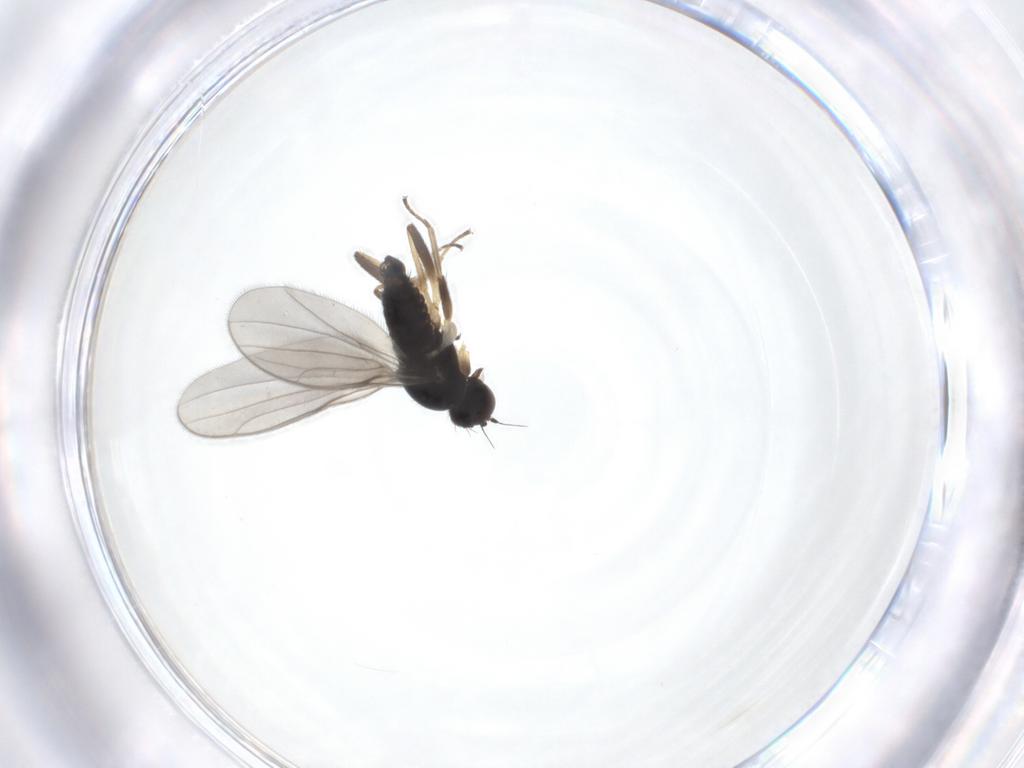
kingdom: Animalia
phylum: Arthropoda
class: Insecta
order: Diptera
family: Hybotidae
